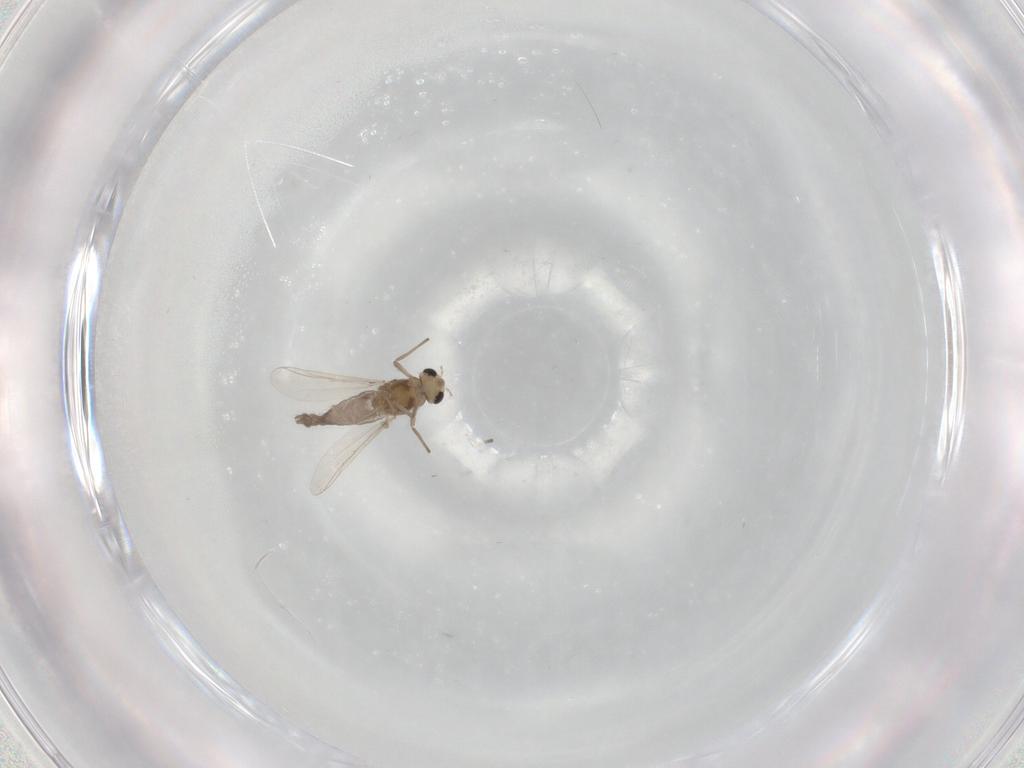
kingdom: Animalia
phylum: Arthropoda
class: Insecta
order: Diptera
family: Chironomidae
